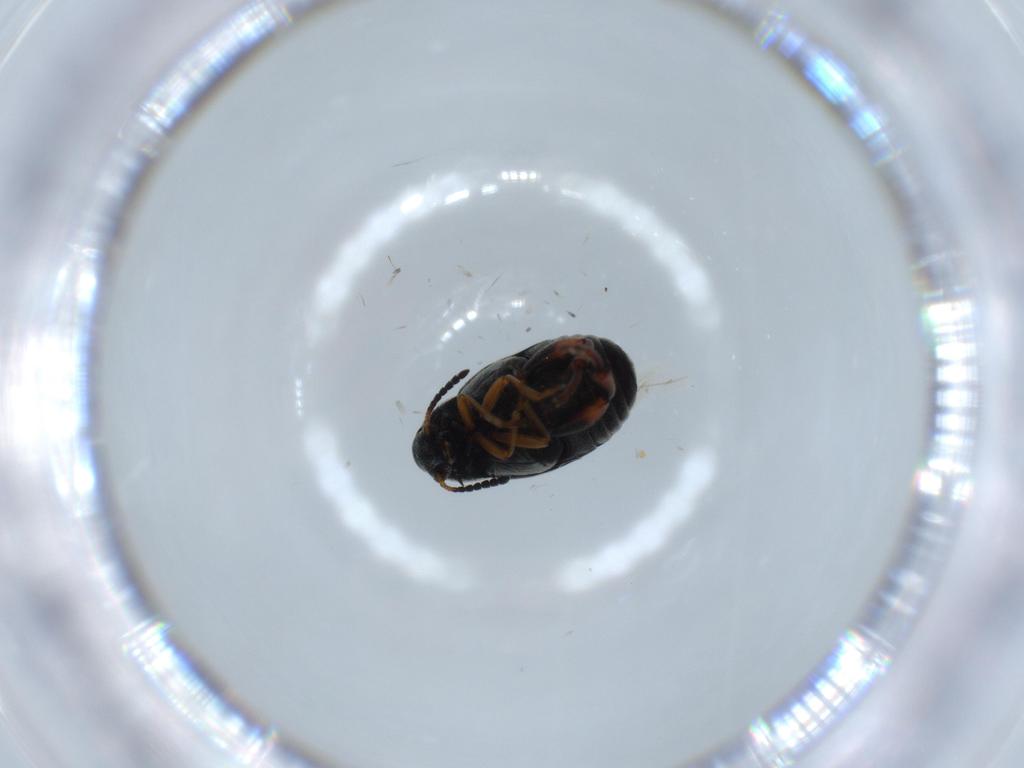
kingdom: Animalia
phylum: Arthropoda
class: Insecta
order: Coleoptera
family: Chrysomelidae
